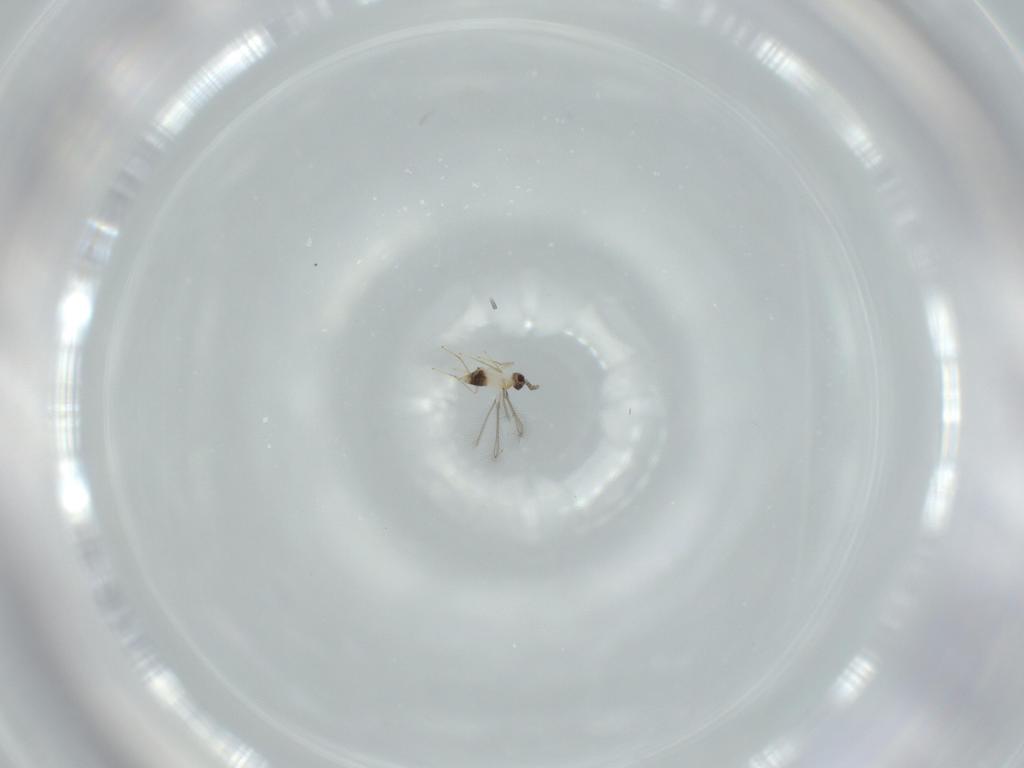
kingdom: Animalia
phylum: Arthropoda
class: Insecta
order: Hymenoptera
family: Mymaridae
